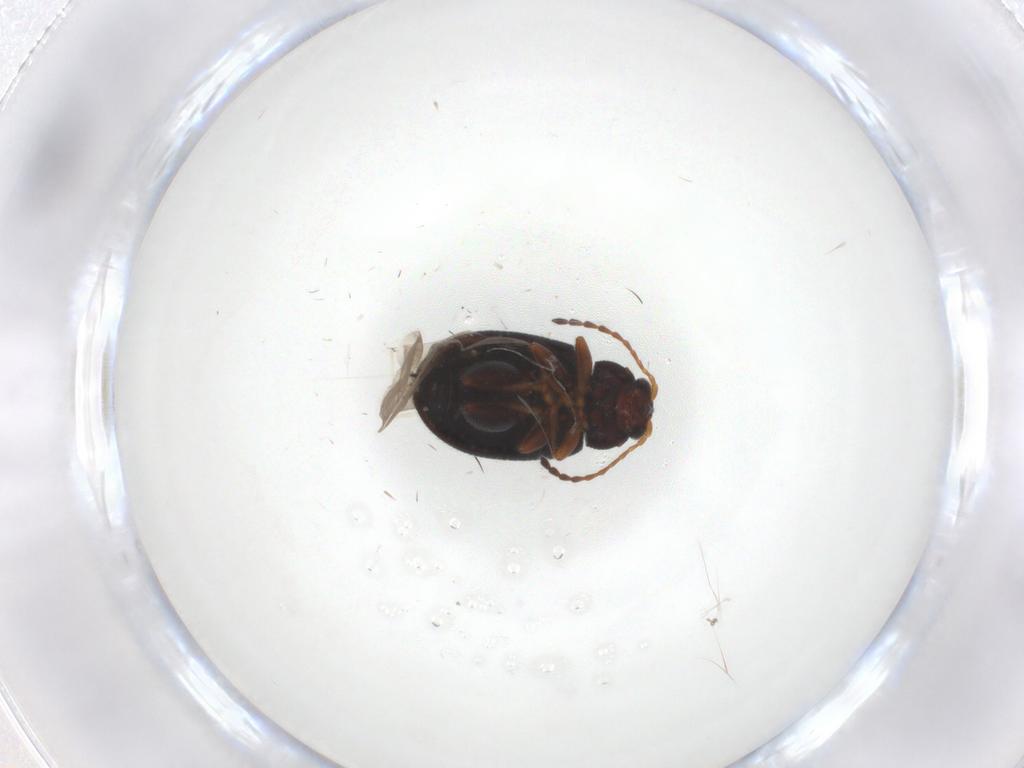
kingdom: Animalia
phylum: Arthropoda
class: Insecta
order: Coleoptera
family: Chrysomelidae
